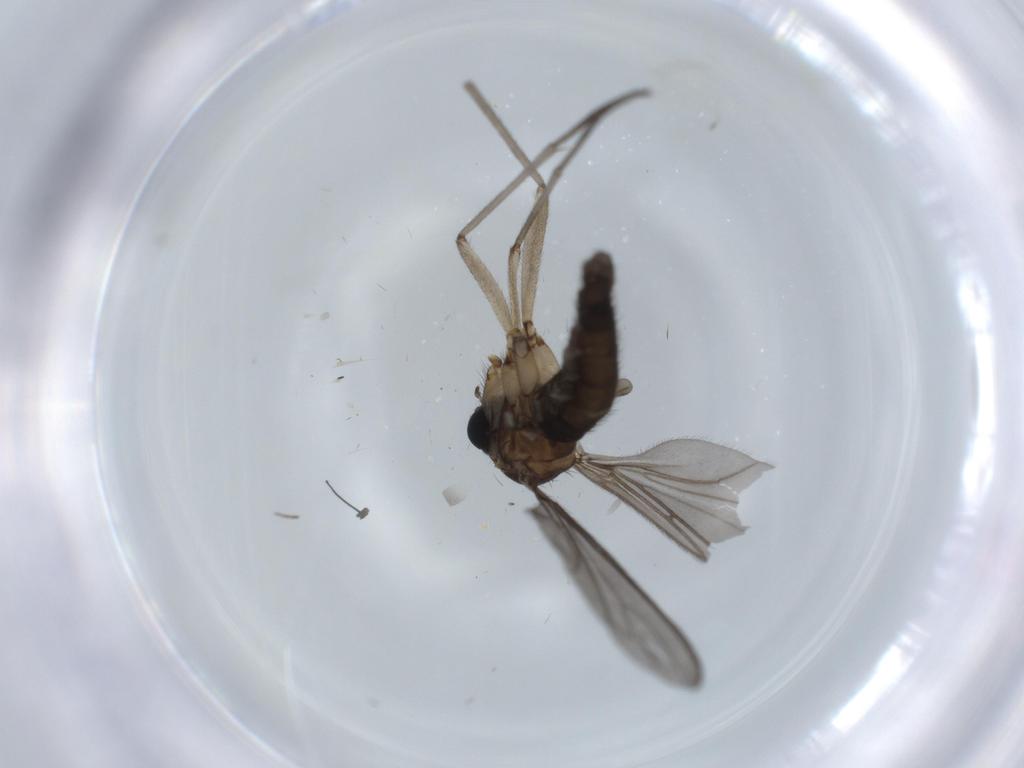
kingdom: Animalia
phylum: Arthropoda
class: Insecta
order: Diptera
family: Sciaridae
